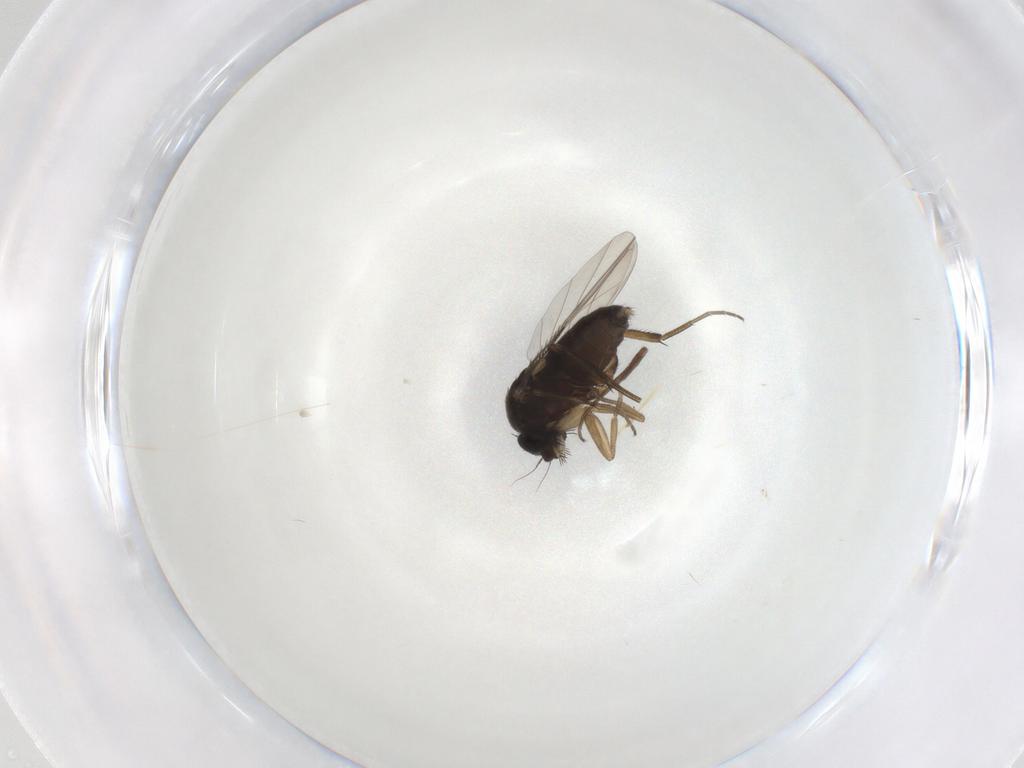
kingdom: Animalia
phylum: Arthropoda
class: Insecta
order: Diptera
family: Phoridae
